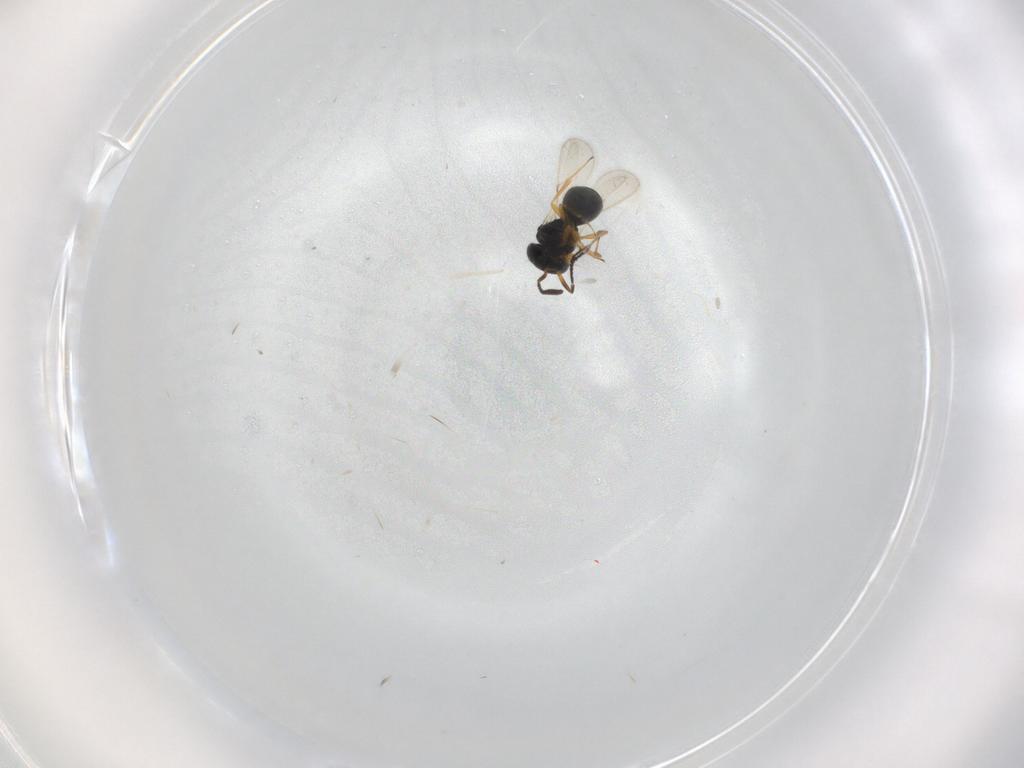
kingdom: Animalia
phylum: Arthropoda
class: Insecta
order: Hymenoptera
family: Scelionidae
